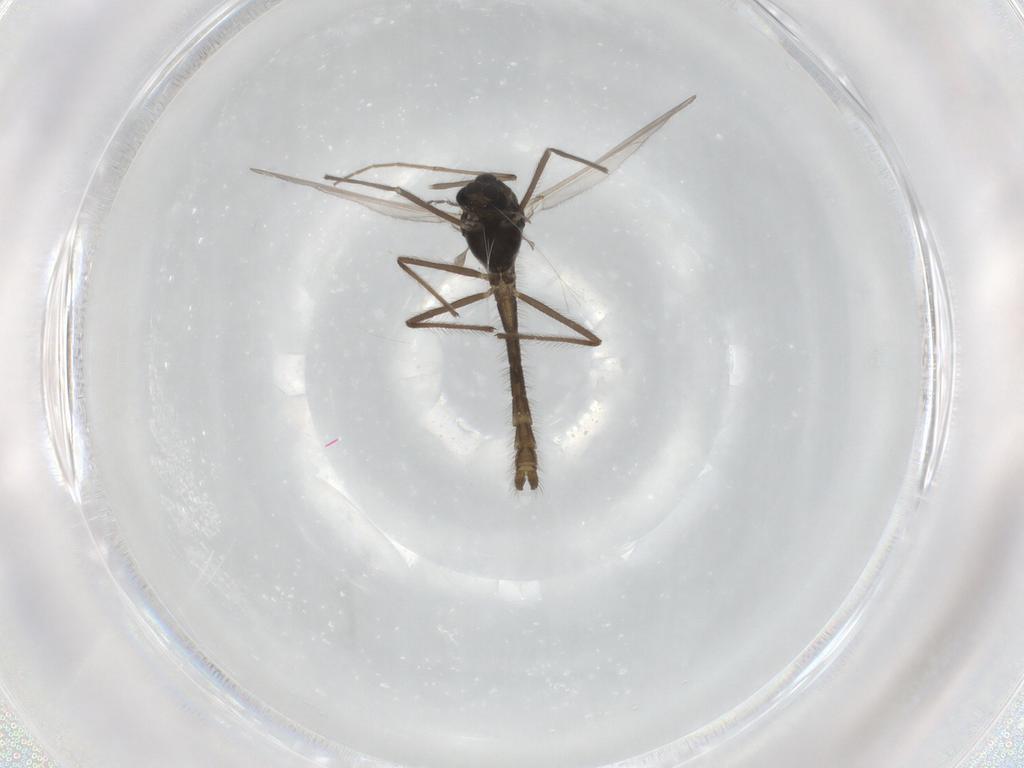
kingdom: Animalia
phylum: Arthropoda
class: Insecta
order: Diptera
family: Chironomidae
